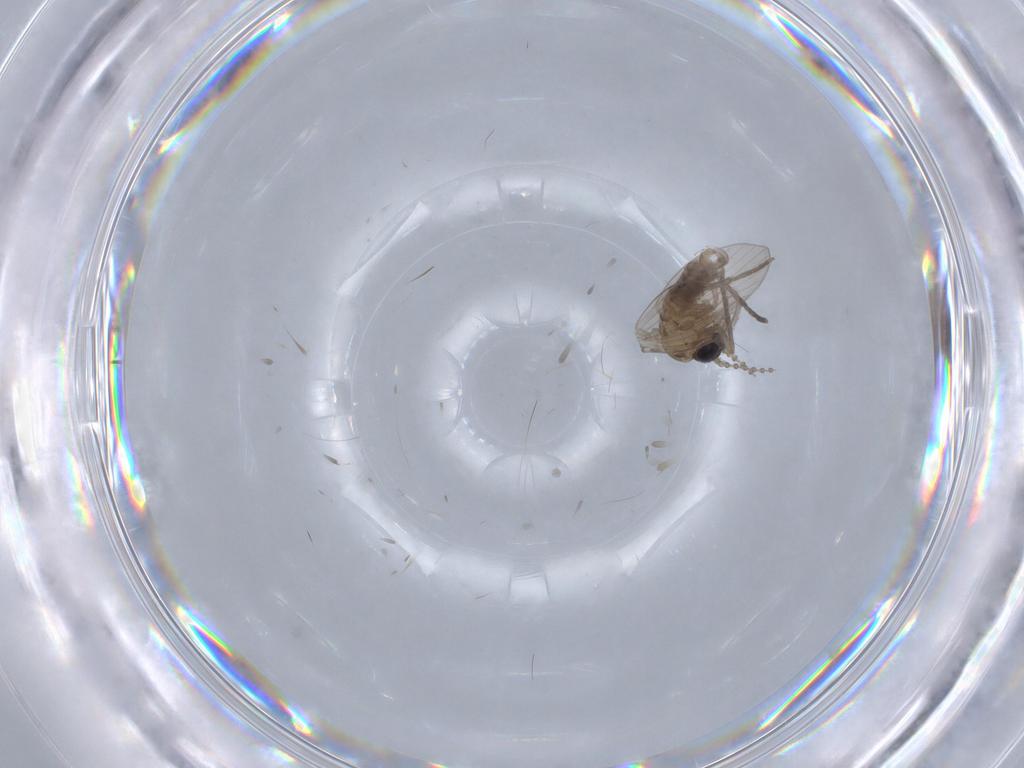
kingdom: Animalia
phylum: Arthropoda
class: Insecta
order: Diptera
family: Psychodidae
